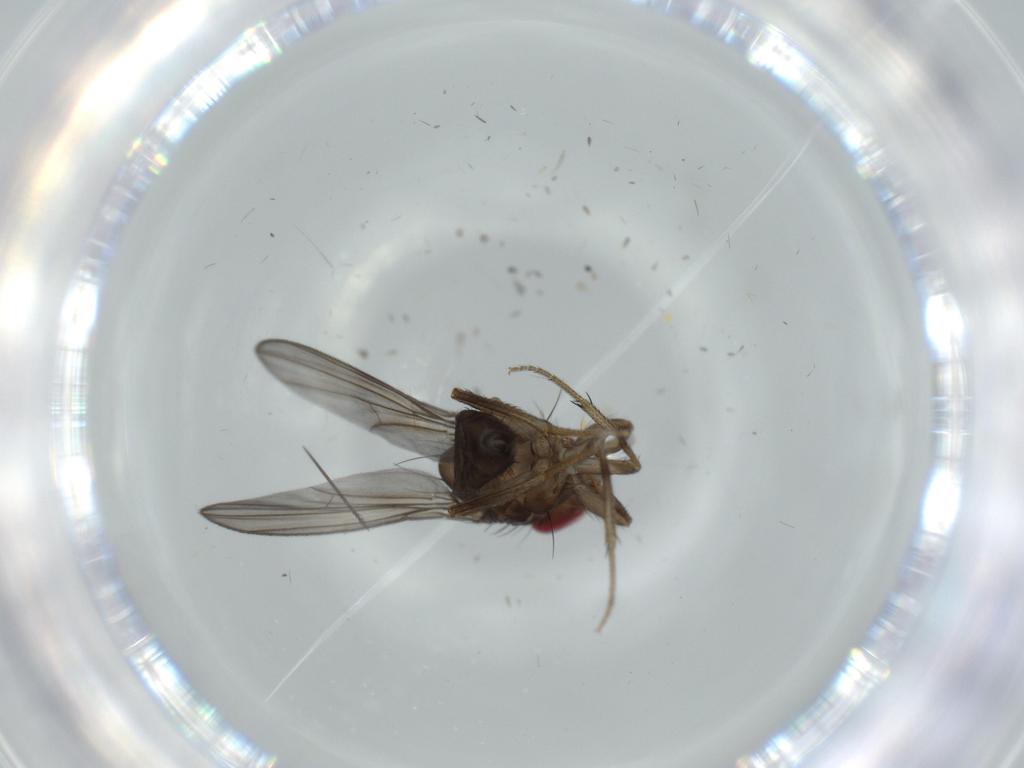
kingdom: Animalia
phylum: Arthropoda
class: Insecta
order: Diptera
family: Drosophilidae
